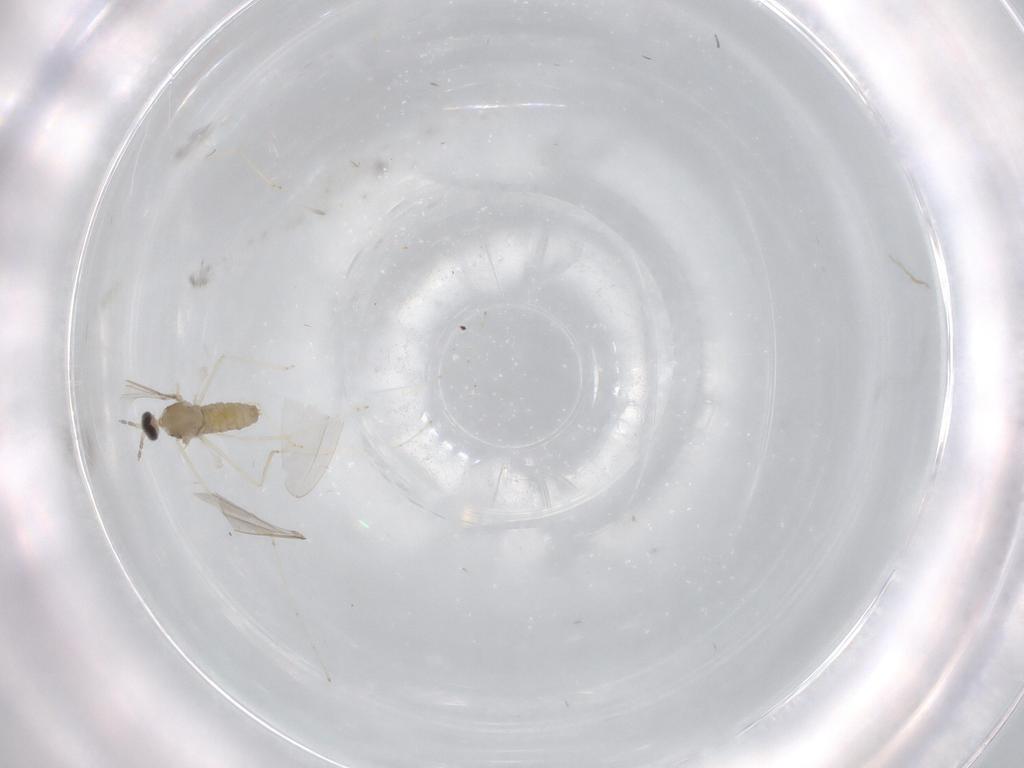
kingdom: Animalia
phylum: Arthropoda
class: Insecta
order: Diptera
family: Cecidomyiidae
